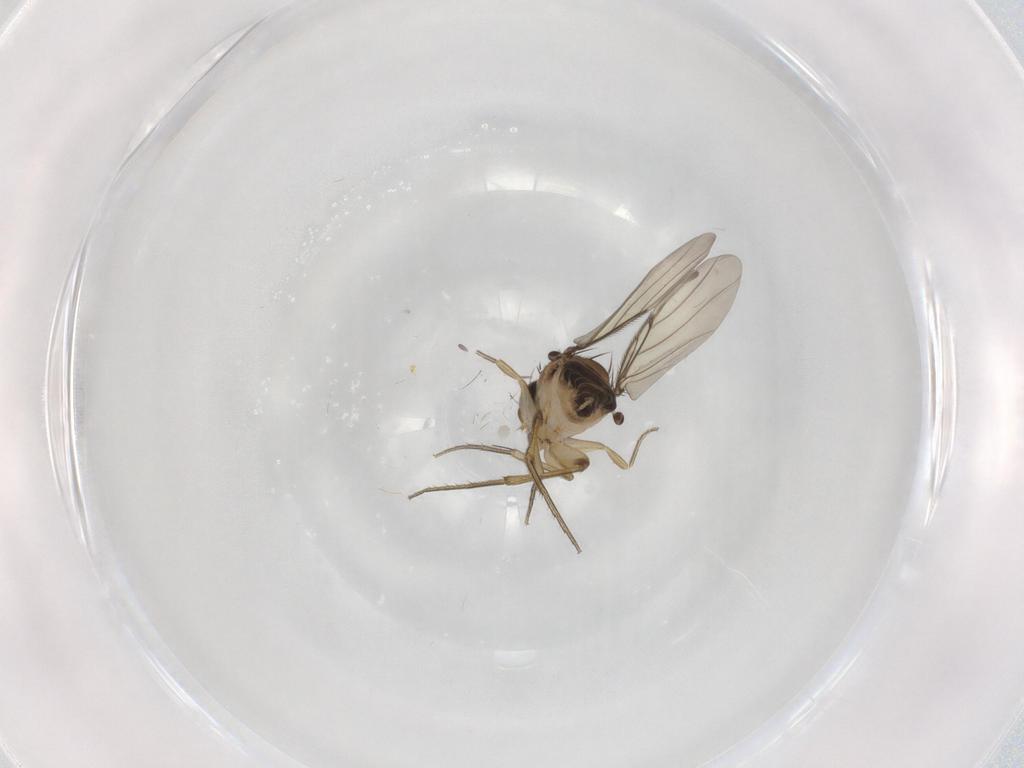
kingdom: Animalia
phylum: Arthropoda
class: Insecta
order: Diptera
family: Phoridae
